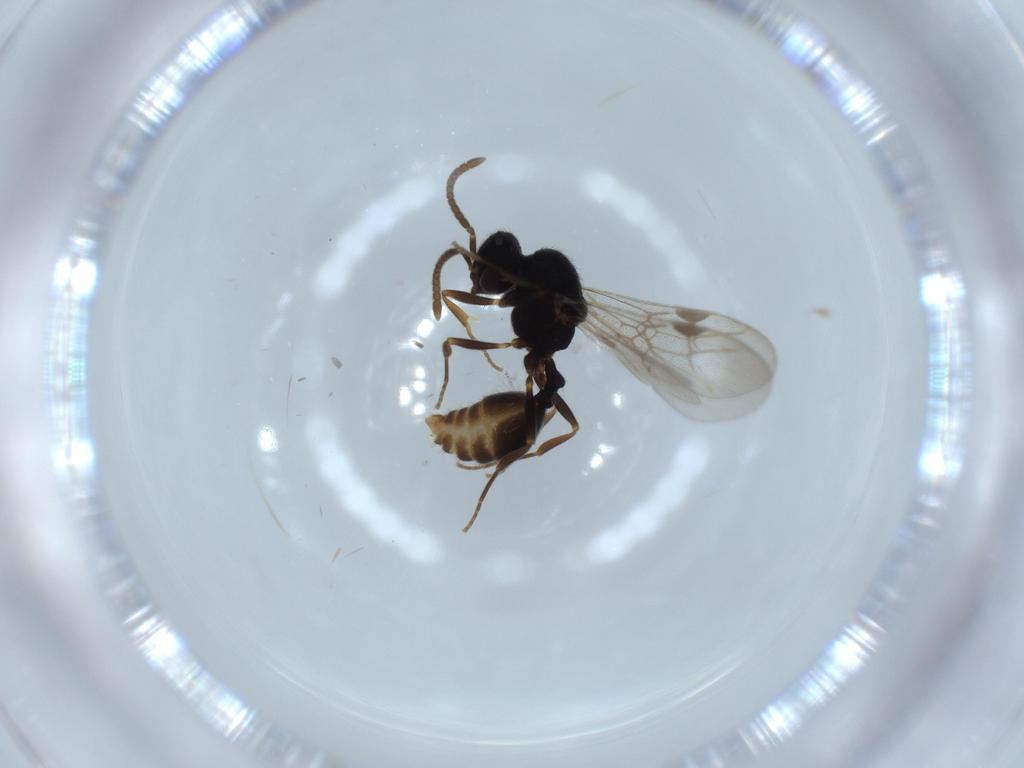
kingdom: Animalia
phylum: Arthropoda
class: Insecta
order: Hymenoptera
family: Formicidae
